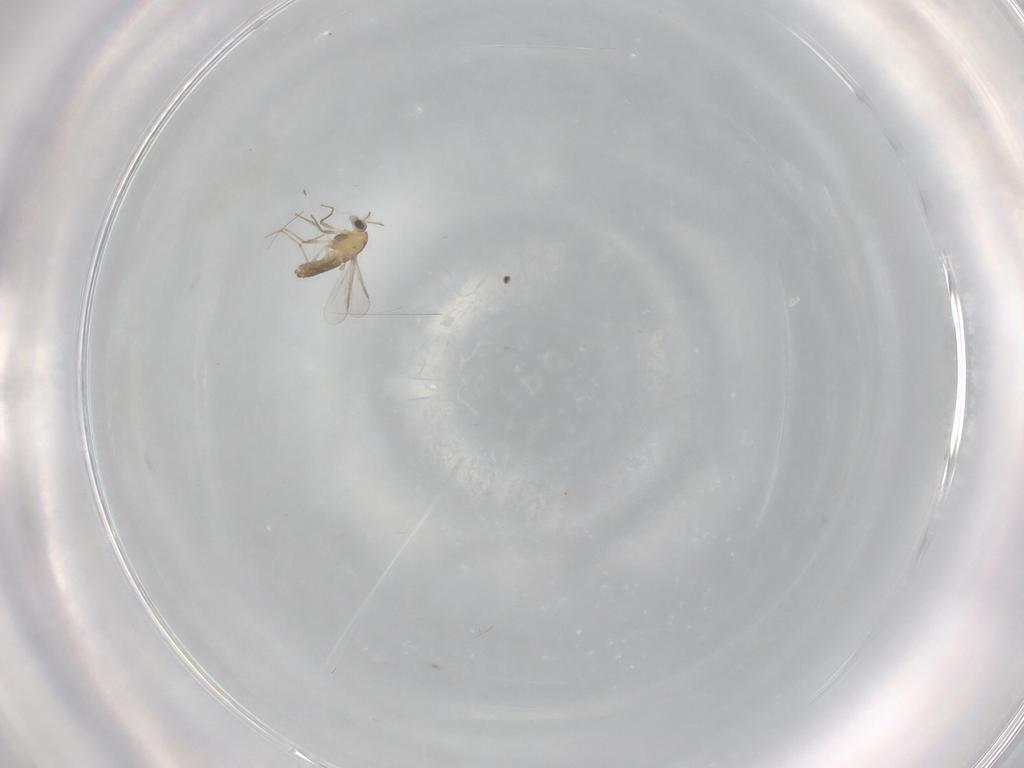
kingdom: Animalia
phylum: Arthropoda
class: Insecta
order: Diptera
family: Chironomidae
